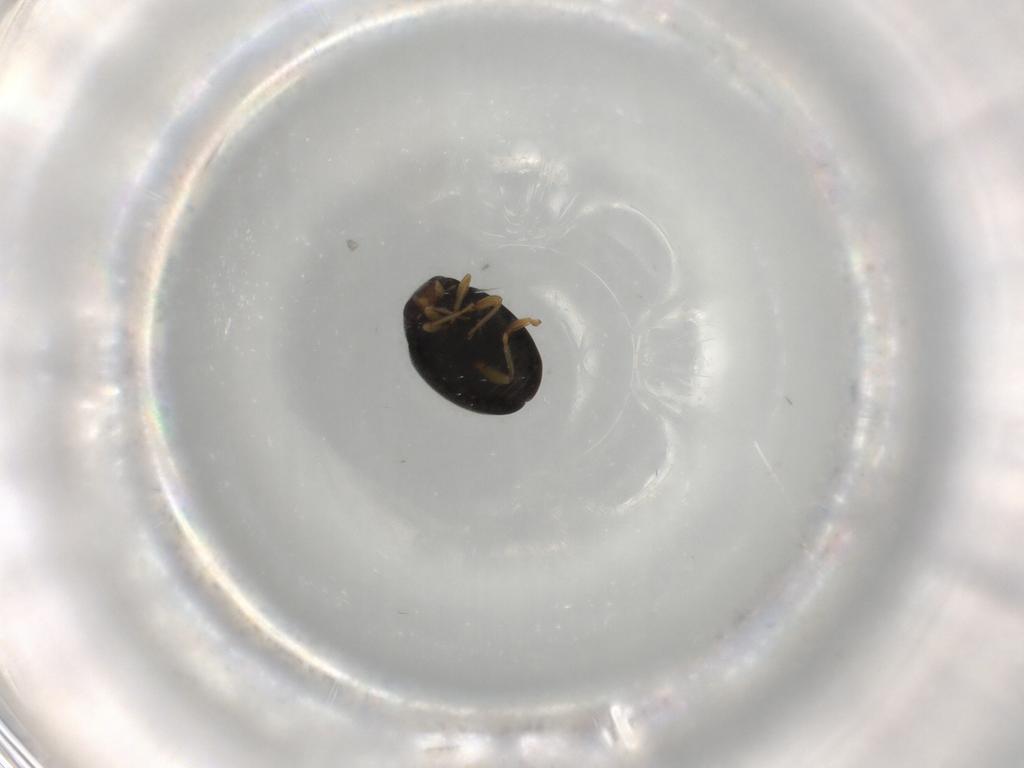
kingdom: Animalia
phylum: Arthropoda
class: Insecta
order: Coleoptera
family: Coccinellidae
